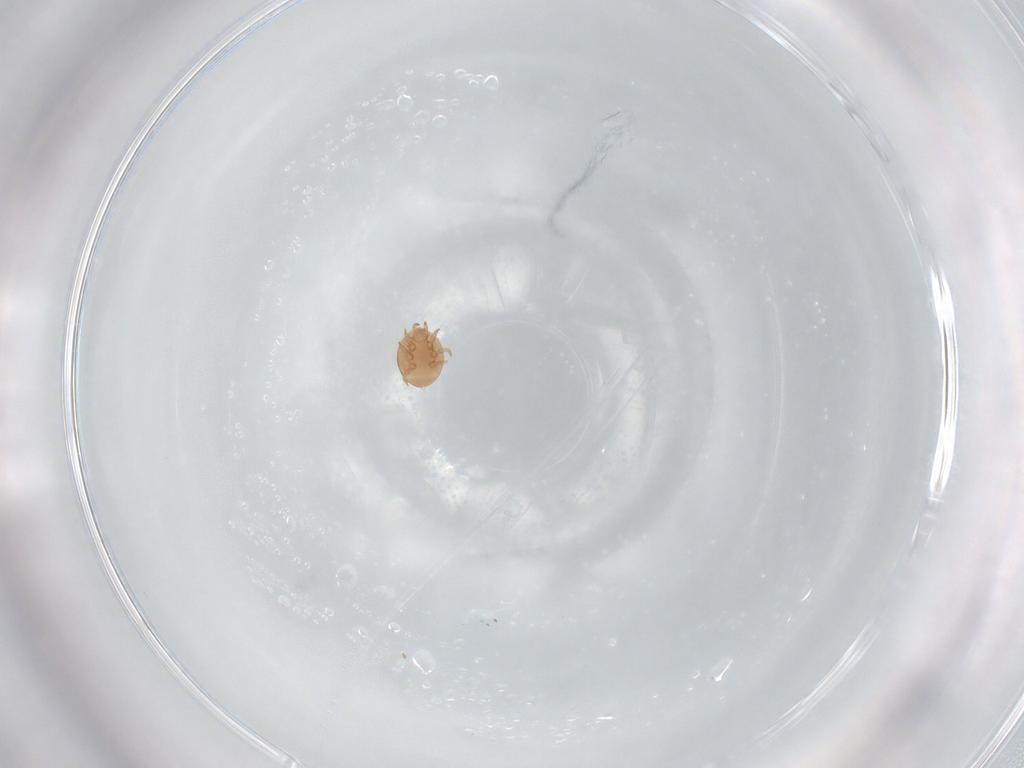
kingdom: Animalia
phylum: Arthropoda
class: Arachnida
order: Mesostigmata
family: Trematuridae
